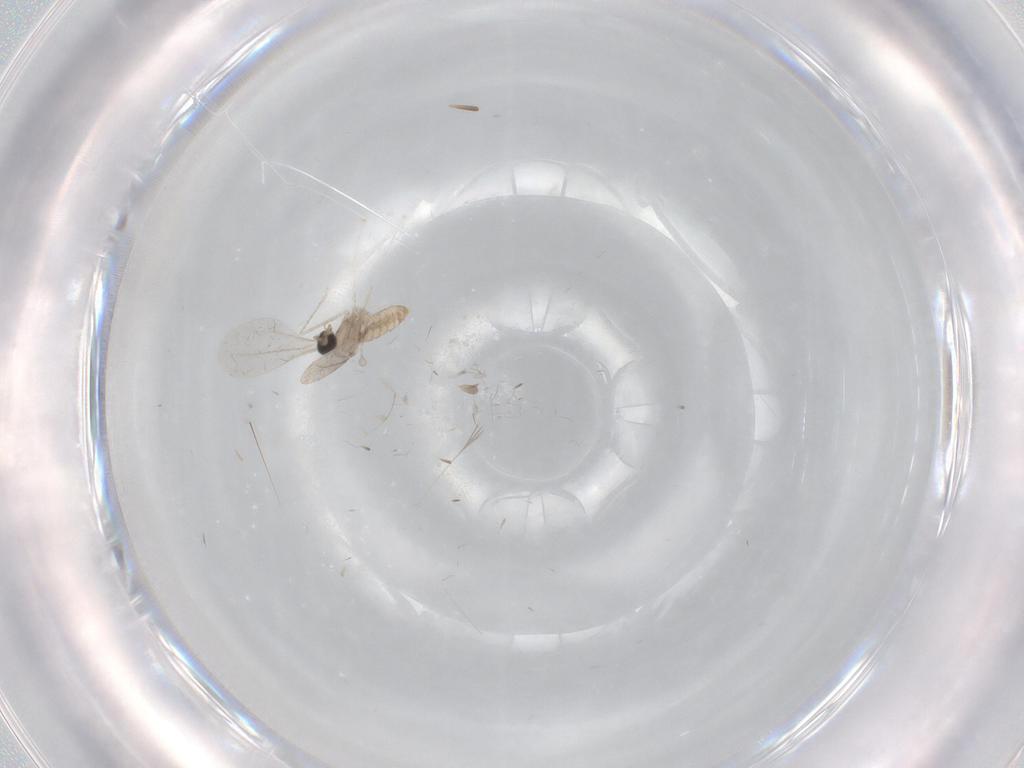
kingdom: Animalia
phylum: Arthropoda
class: Insecta
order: Diptera
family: Cecidomyiidae
